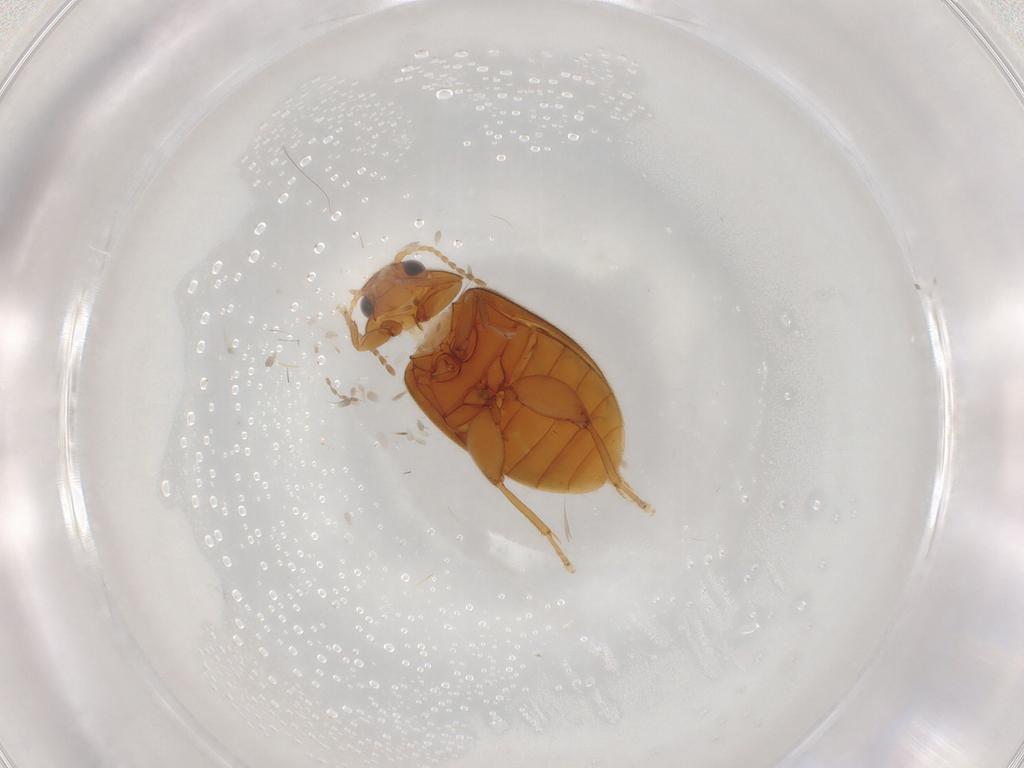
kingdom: Animalia
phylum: Arthropoda
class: Insecta
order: Coleoptera
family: Scirtidae
